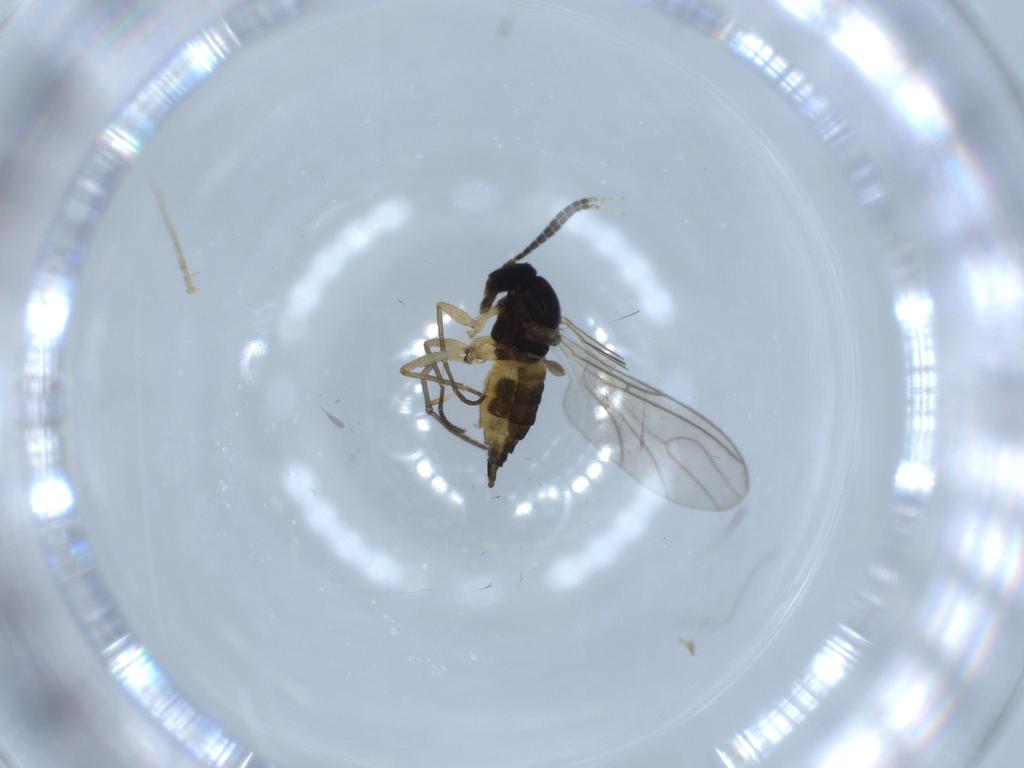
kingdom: Animalia
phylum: Arthropoda
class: Insecta
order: Diptera
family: Sciaridae
